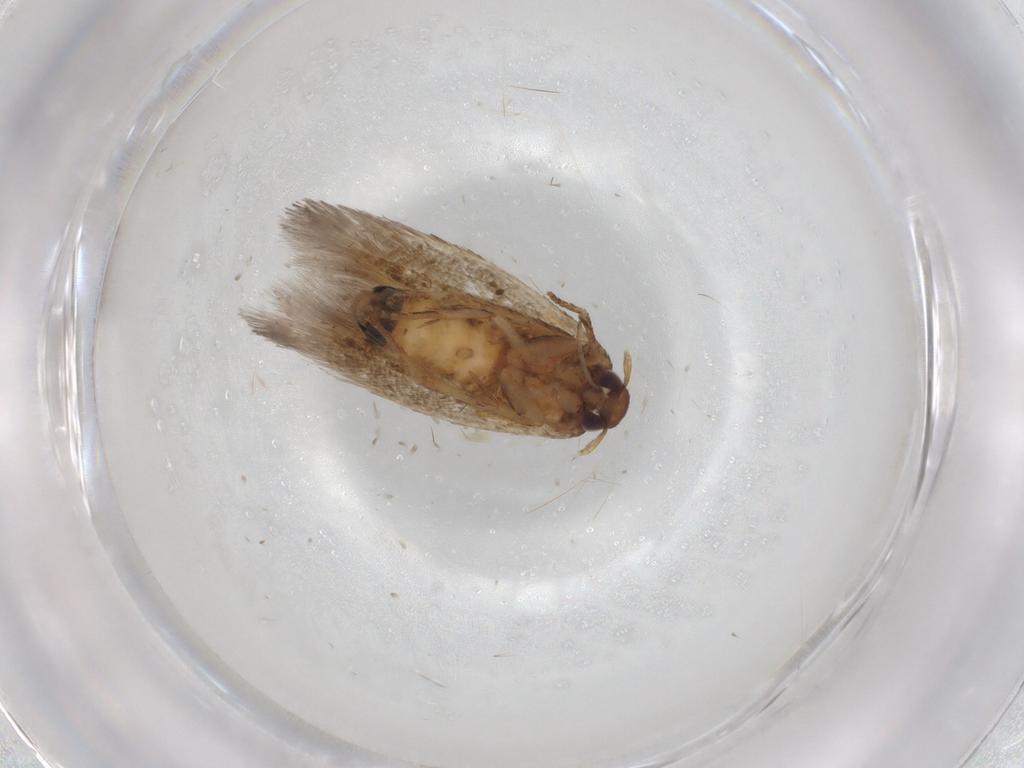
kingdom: Animalia
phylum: Arthropoda
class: Insecta
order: Lepidoptera
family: Cosmopterigidae
